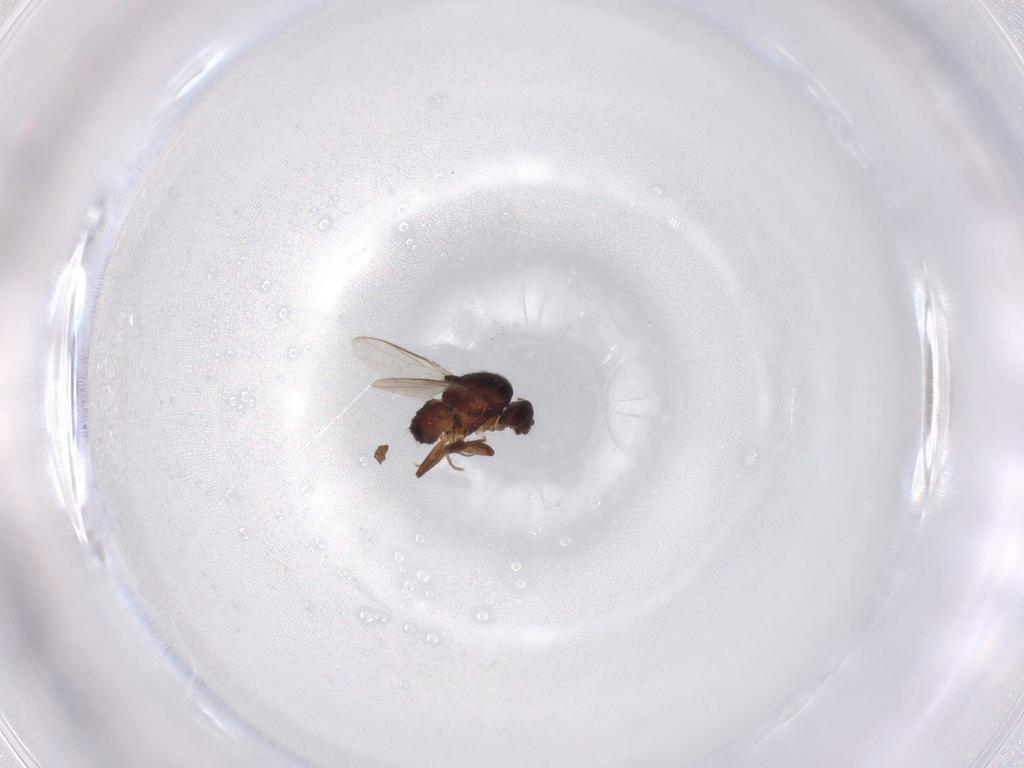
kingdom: Animalia
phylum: Arthropoda
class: Insecta
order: Diptera
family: Sphaeroceridae
